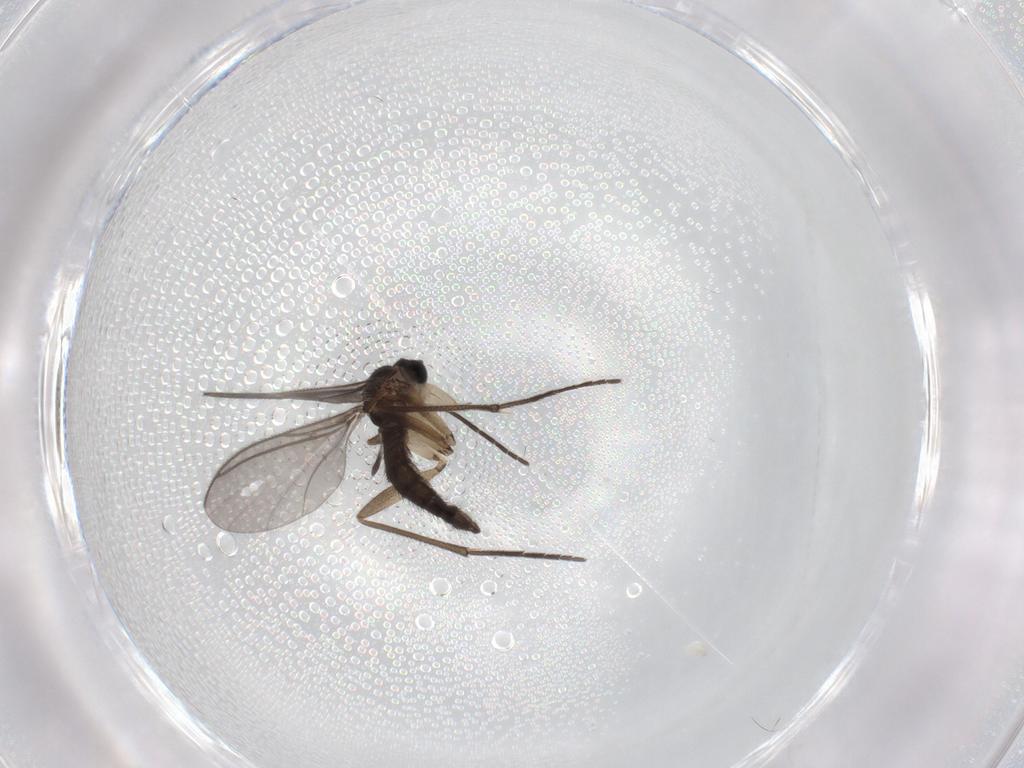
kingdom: Animalia
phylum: Arthropoda
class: Insecta
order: Diptera
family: Sciaridae
